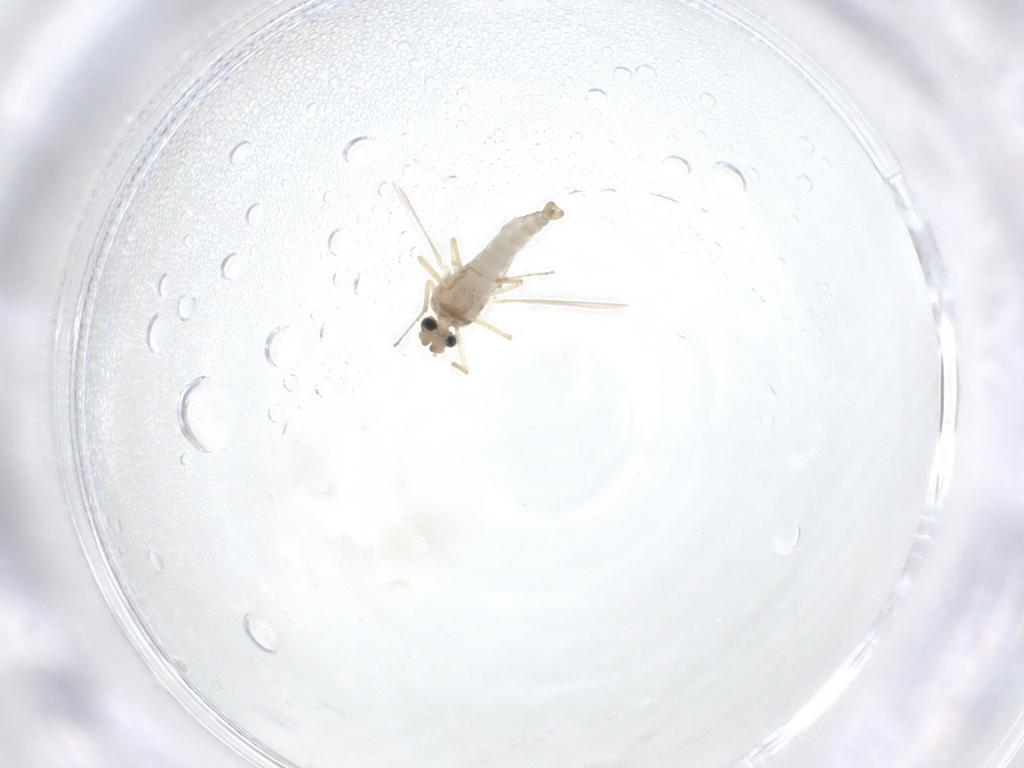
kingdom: Animalia
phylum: Arthropoda
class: Insecta
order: Diptera
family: Ceratopogonidae
